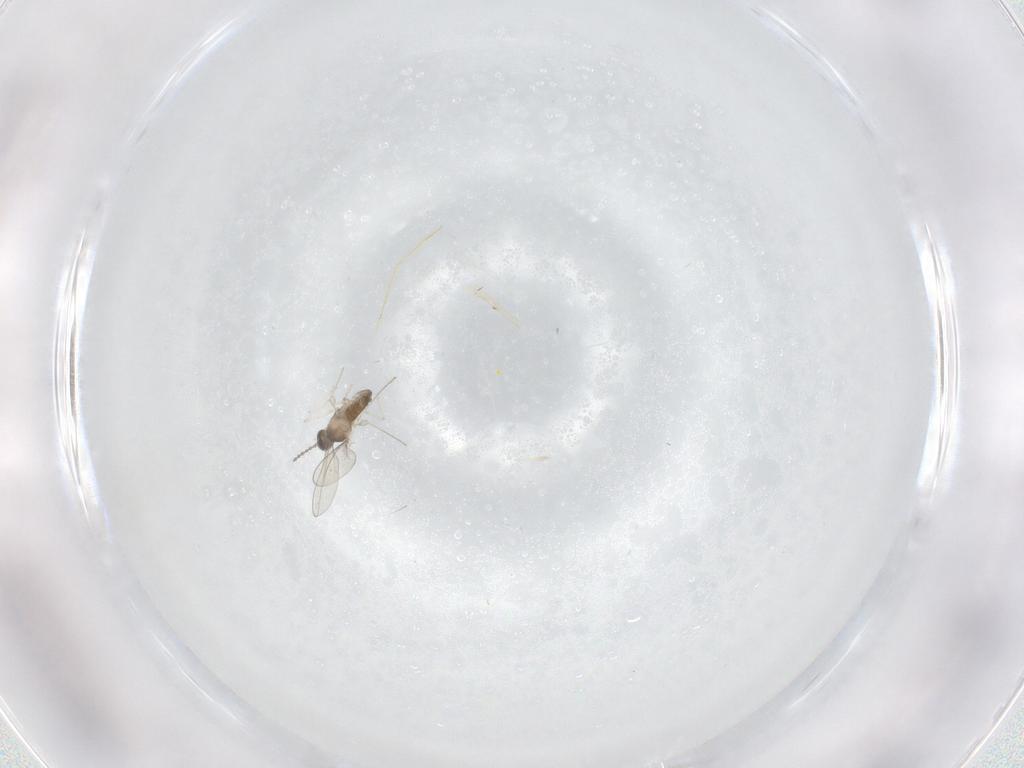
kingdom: Animalia
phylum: Arthropoda
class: Insecta
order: Diptera
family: Cecidomyiidae
